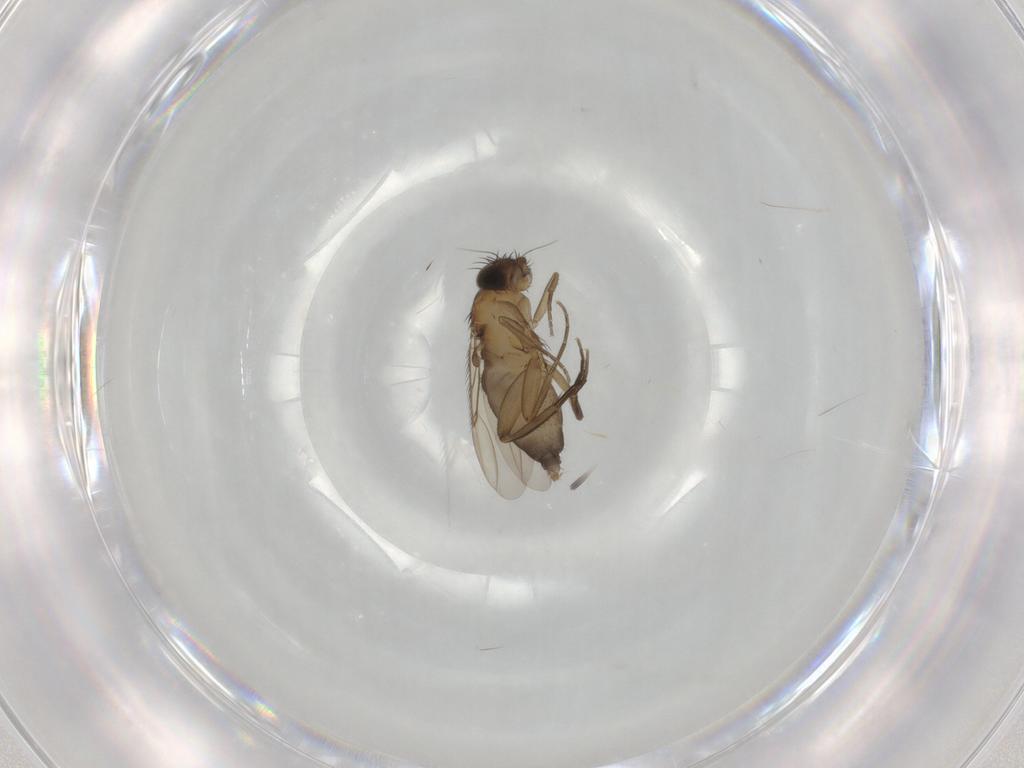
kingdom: Animalia
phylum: Arthropoda
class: Insecta
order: Diptera
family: Phoridae
